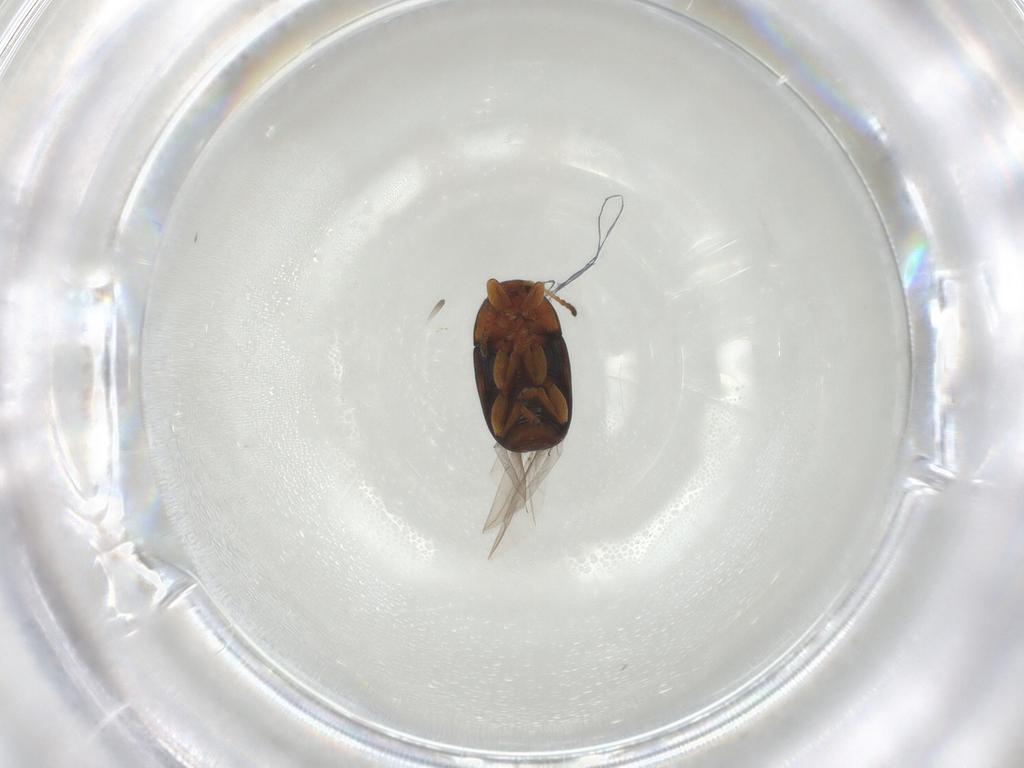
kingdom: Animalia
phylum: Arthropoda
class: Insecta
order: Coleoptera
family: Chrysomelidae
